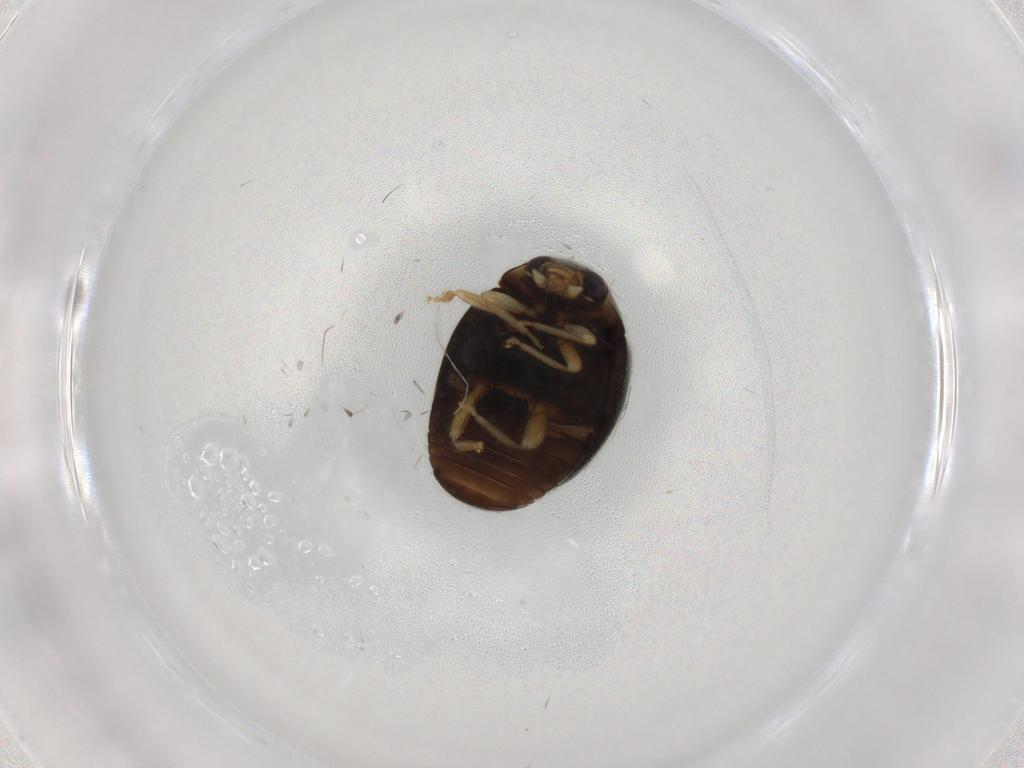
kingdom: Animalia
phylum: Arthropoda
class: Insecta
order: Coleoptera
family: Coccinellidae
